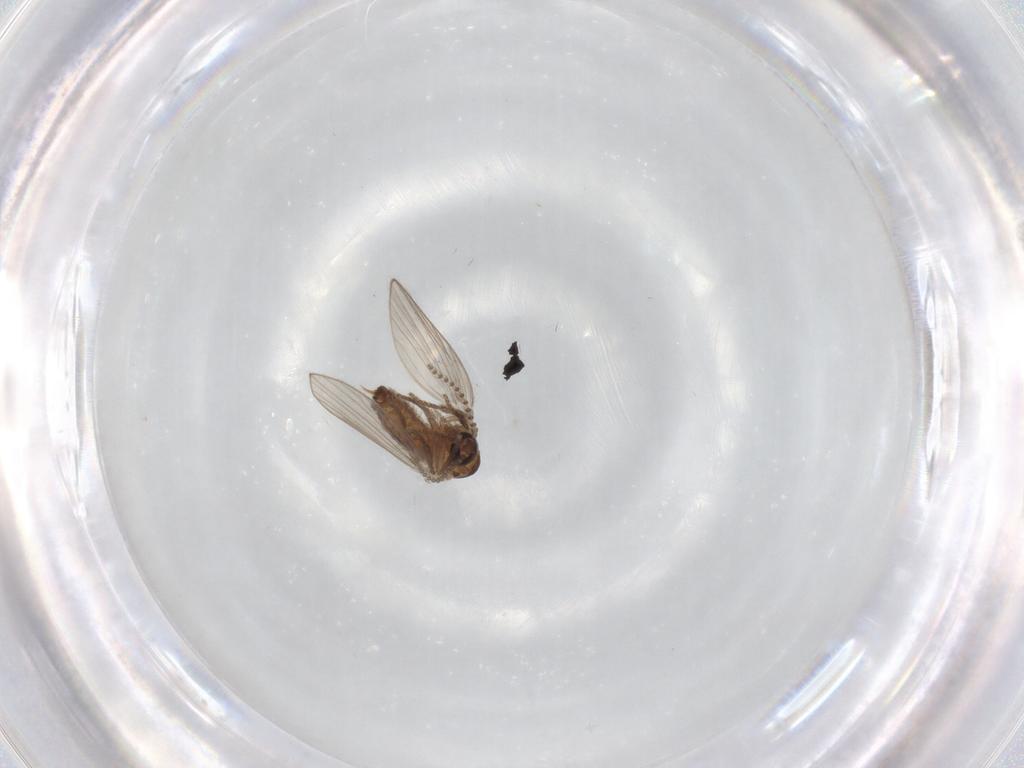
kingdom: Animalia
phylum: Arthropoda
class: Insecta
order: Diptera
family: Psychodidae
